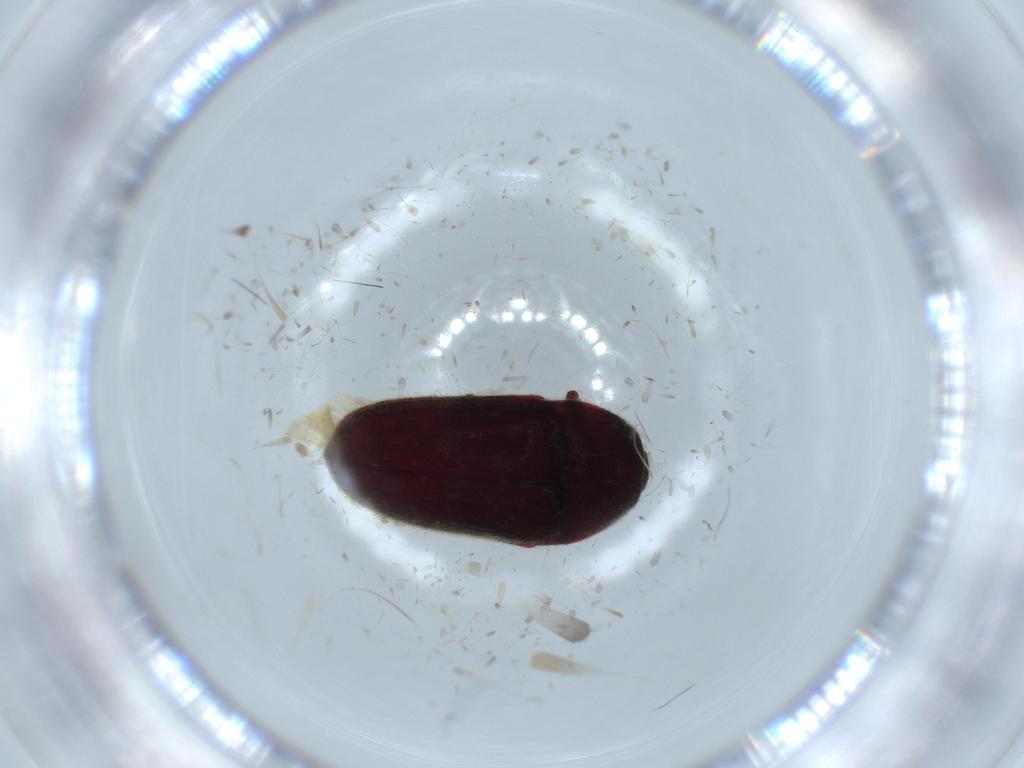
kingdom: Animalia
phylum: Arthropoda
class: Insecta
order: Coleoptera
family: Throscidae
